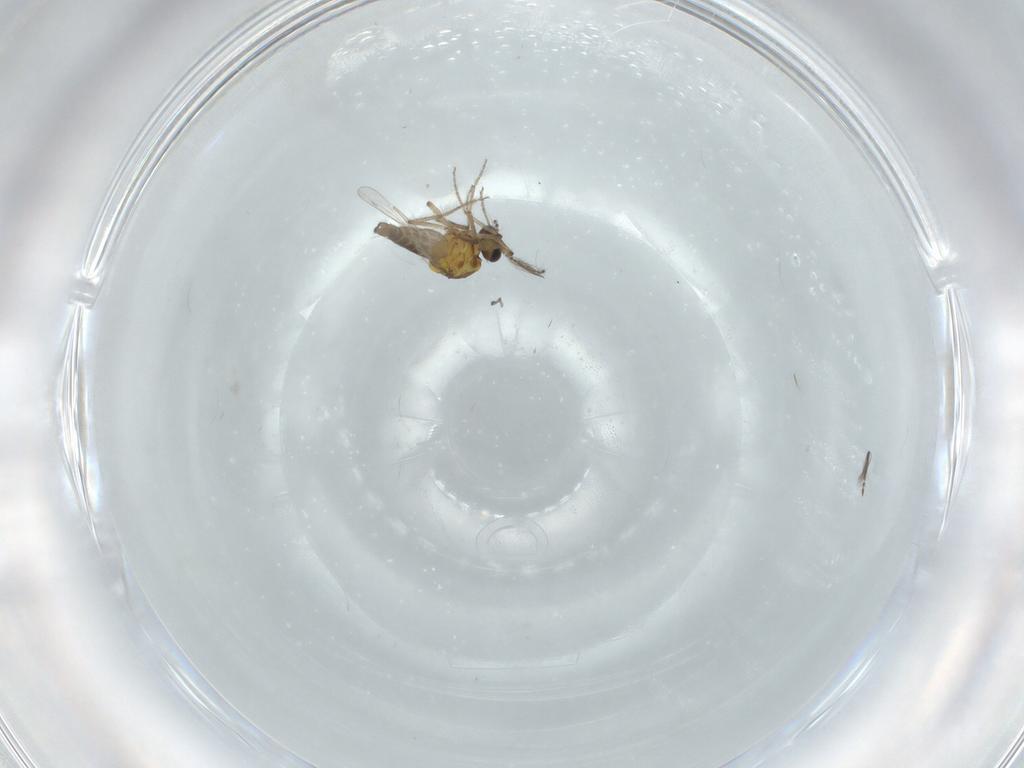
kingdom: Animalia
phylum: Arthropoda
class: Insecta
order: Diptera
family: Ceratopogonidae
